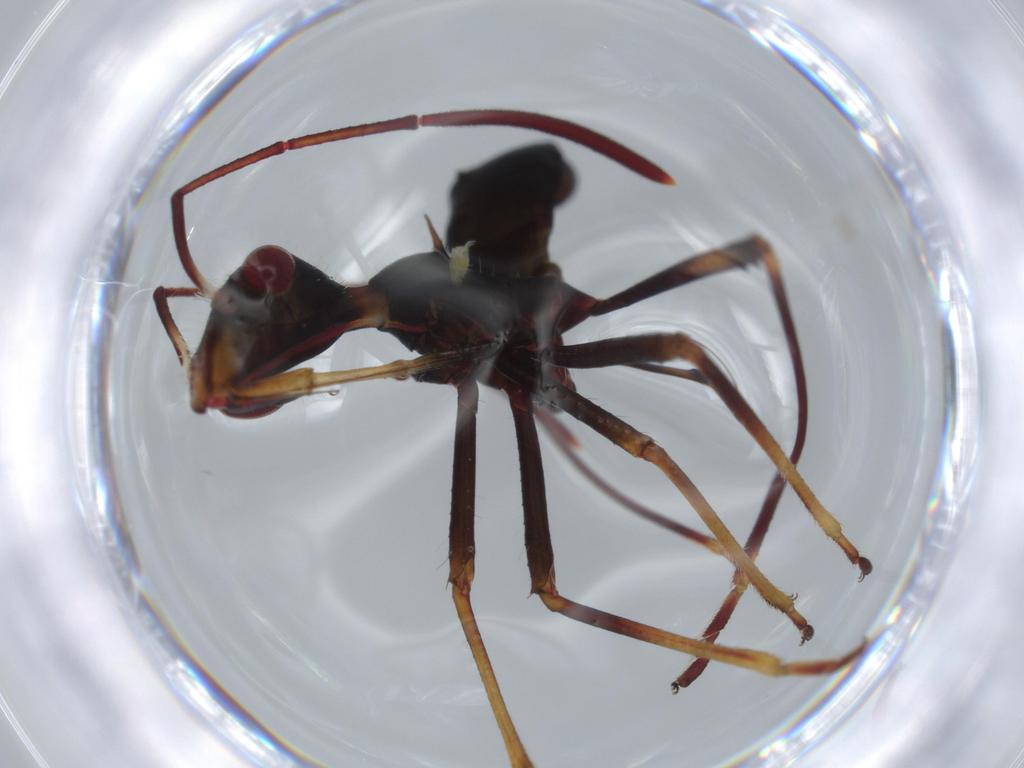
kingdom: Animalia
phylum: Arthropoda
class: Insecta
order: Hemiptera
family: Alydidae
